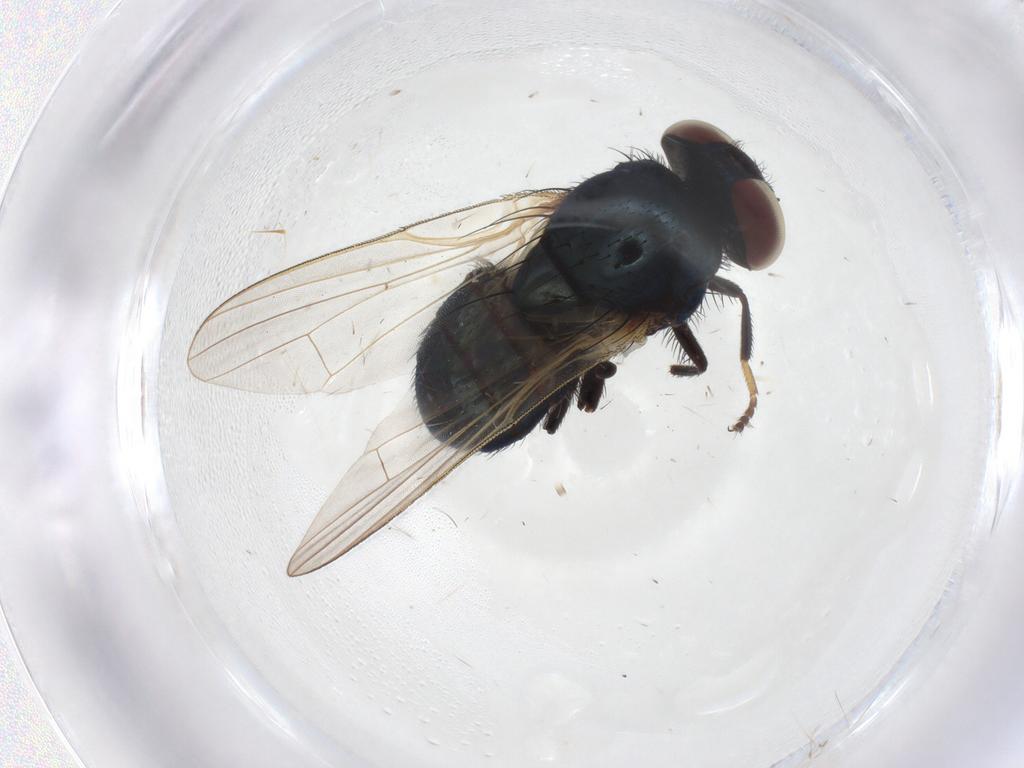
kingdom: Animalia
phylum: Arthropoda
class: Insecta
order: Diptera
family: Lonchaeidae
